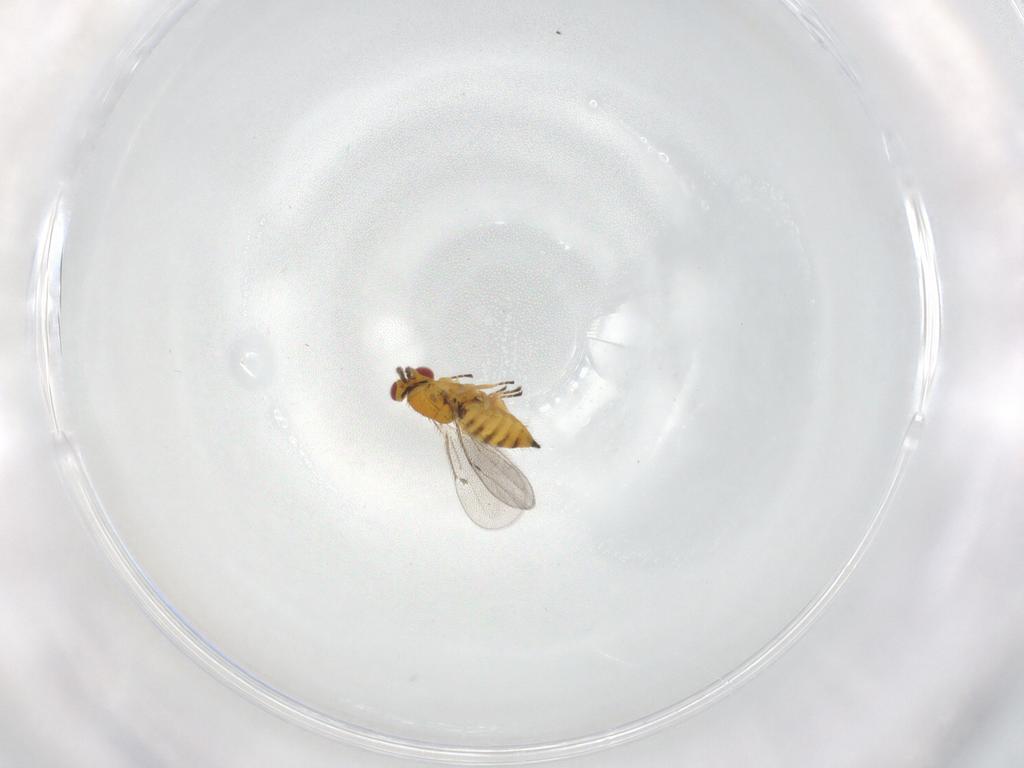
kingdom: Animalia
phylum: Arthropoda
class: Insecta
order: Hymenoptera
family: Eulophidae
